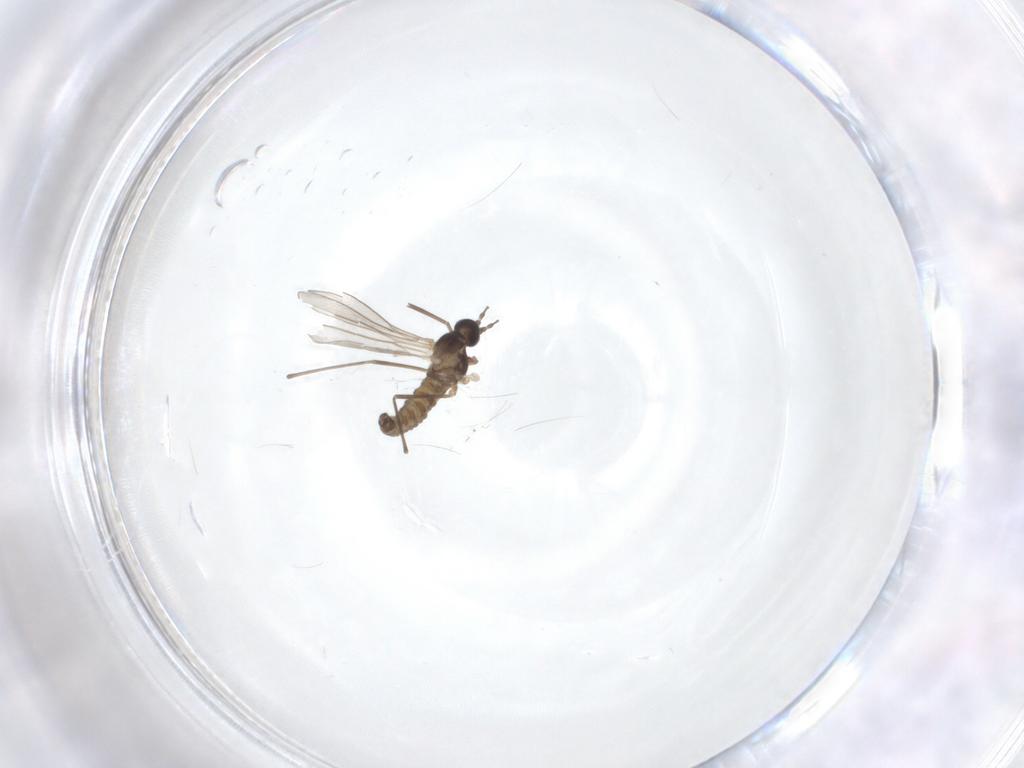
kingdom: Animalia
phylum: Arthropoda
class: Insecta
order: Diptera
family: Cecidomyiidae
